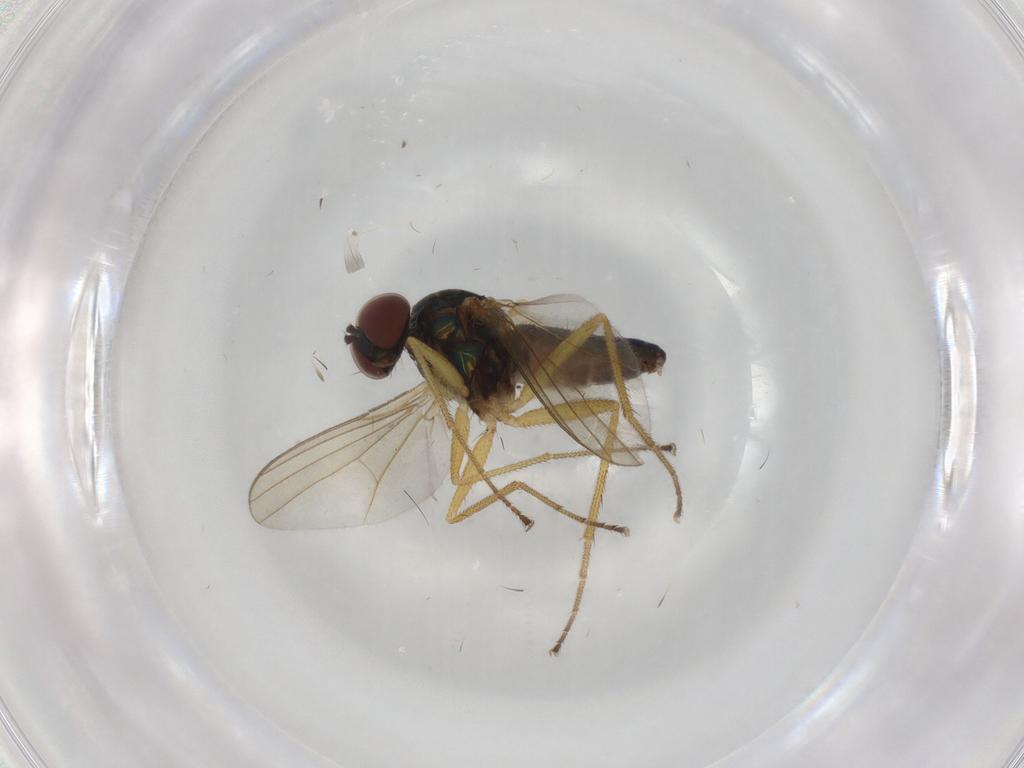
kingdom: Animalia
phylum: Arthropoda
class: Insecta
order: Diptera
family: Dolichopodidae
